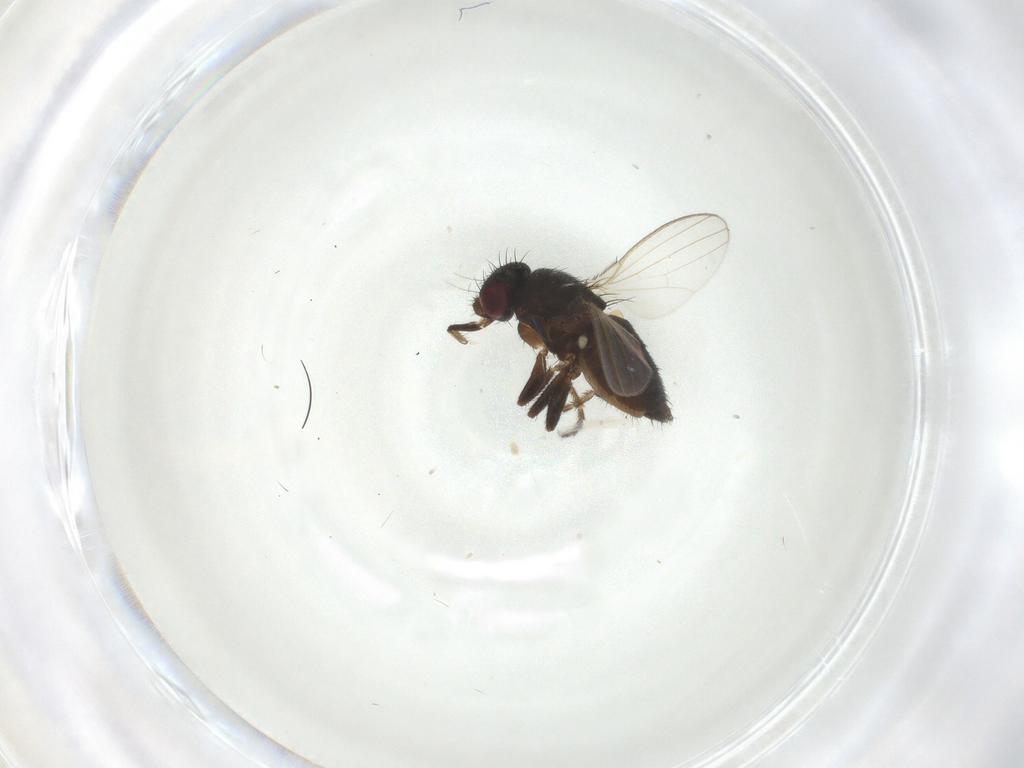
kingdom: Animalia
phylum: Arthropoda
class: Insecta
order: Diptera
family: Milichiidae
